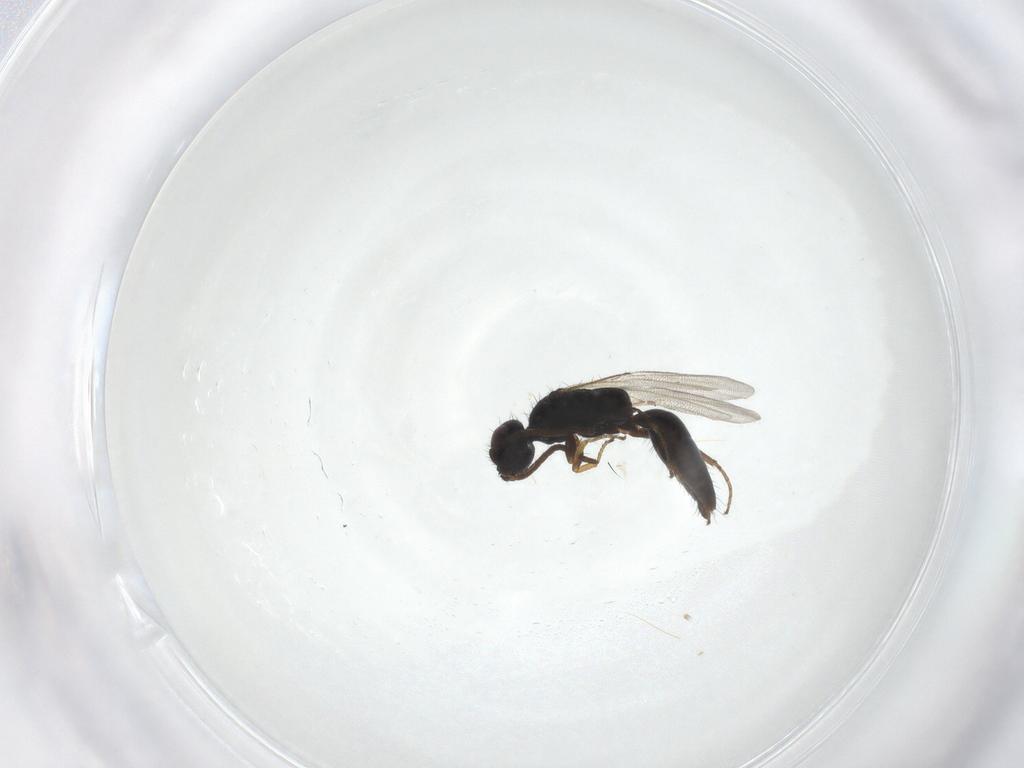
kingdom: Animalia
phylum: Arthropoda
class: Insecta
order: Hymenoptera
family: Bethylidae
